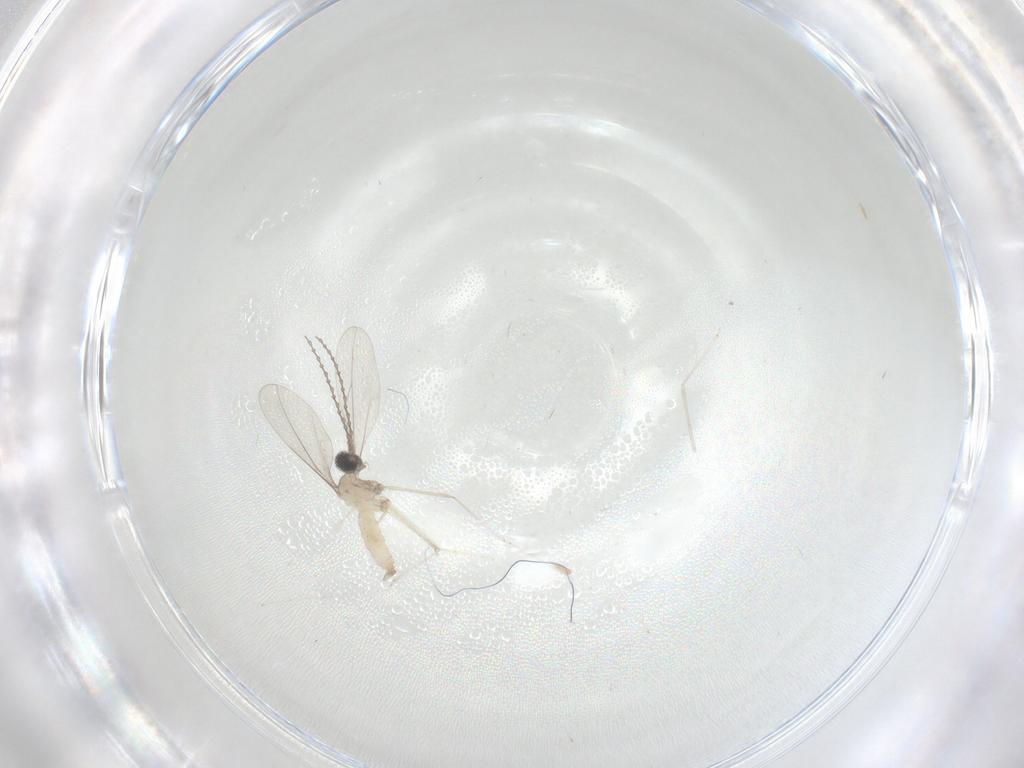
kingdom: Animalia
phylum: Arthropoda
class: Insecta
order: Diptera
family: Cecidomyiidae
